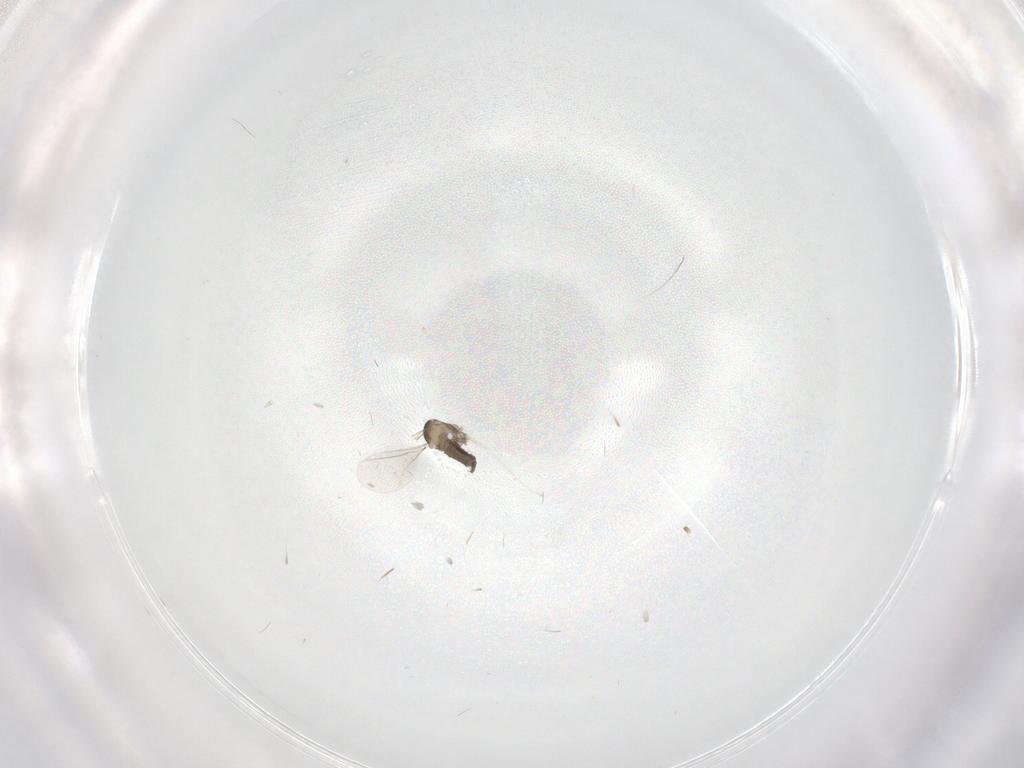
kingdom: Animalia
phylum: Arthropoda
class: Insecta
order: Diptera
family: Cecidomyiidae
